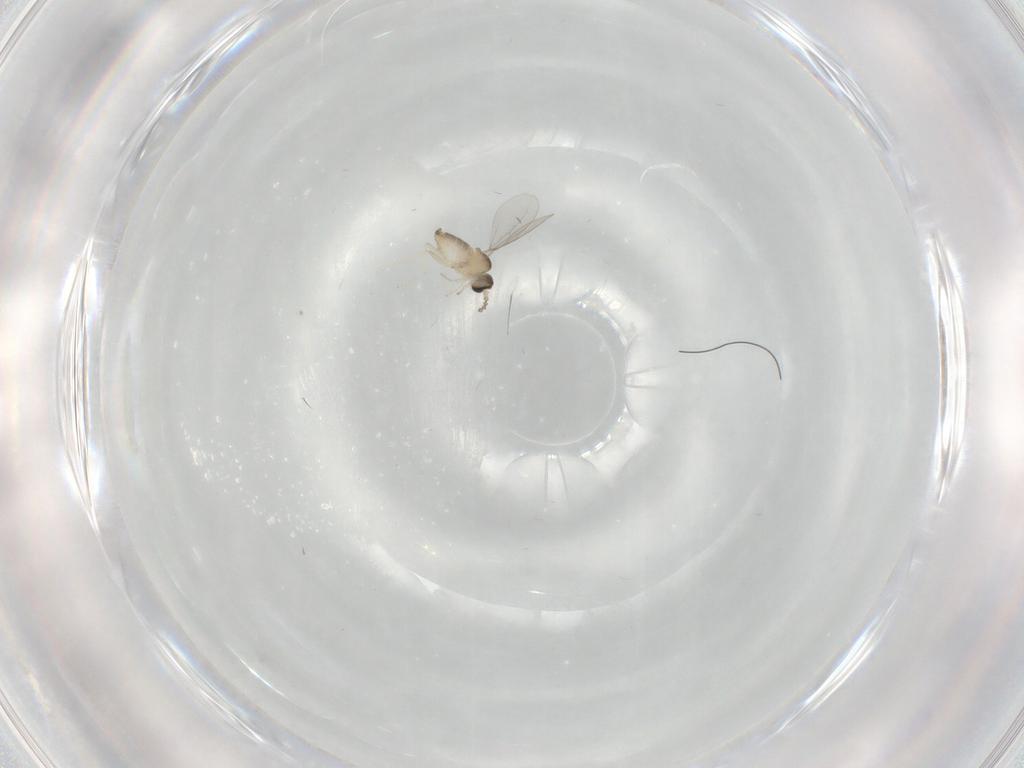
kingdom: Animalia
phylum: Arthropoda
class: Insecta
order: Diptera
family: Cecidomyiidae
